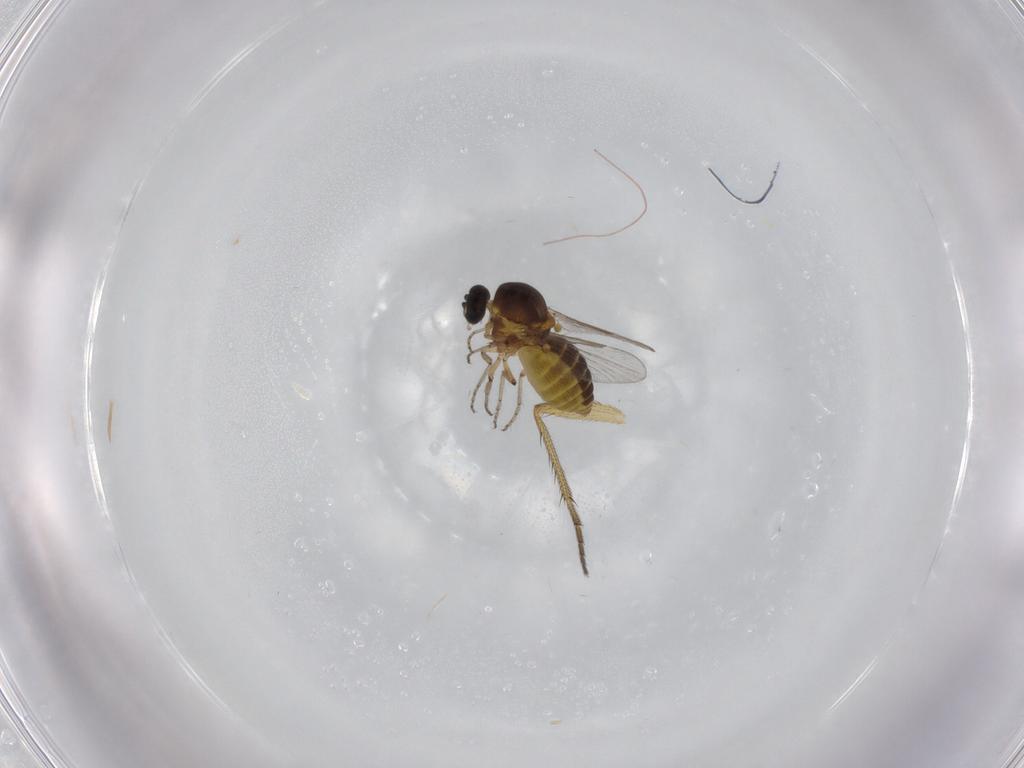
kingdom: Animalia
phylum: Arthropoda
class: Insecta
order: Diptera
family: Ceratopogonidae
